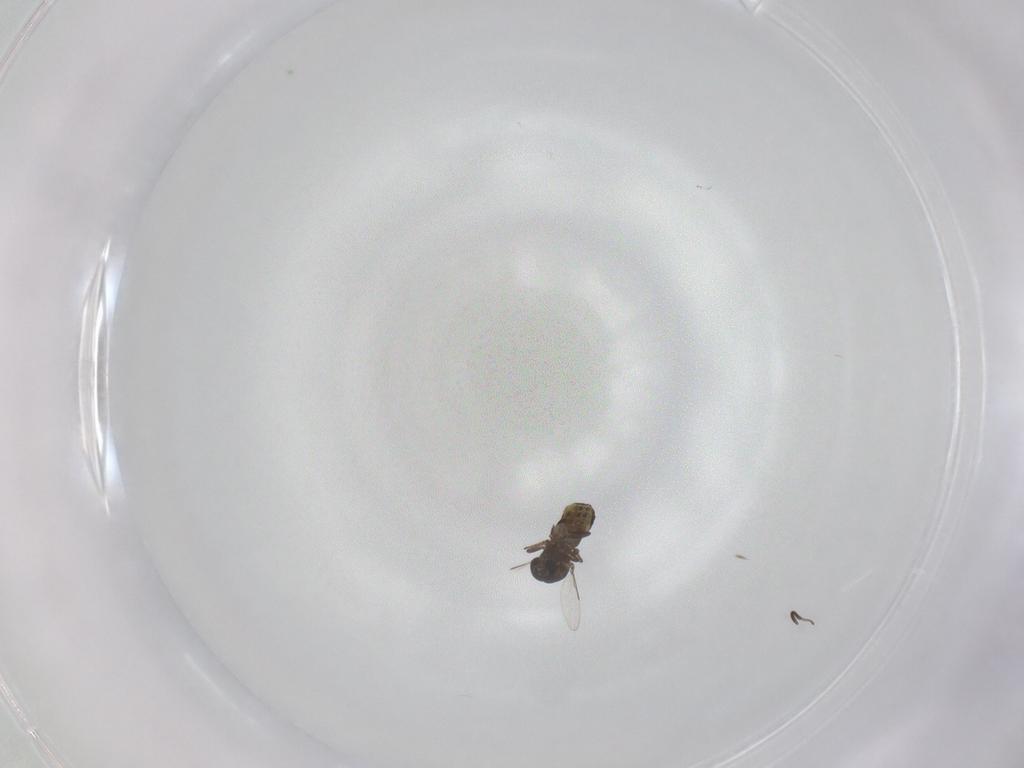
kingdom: Animalia
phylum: Arthropoda
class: Insecta
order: Diptera
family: Ceratopogonidae
